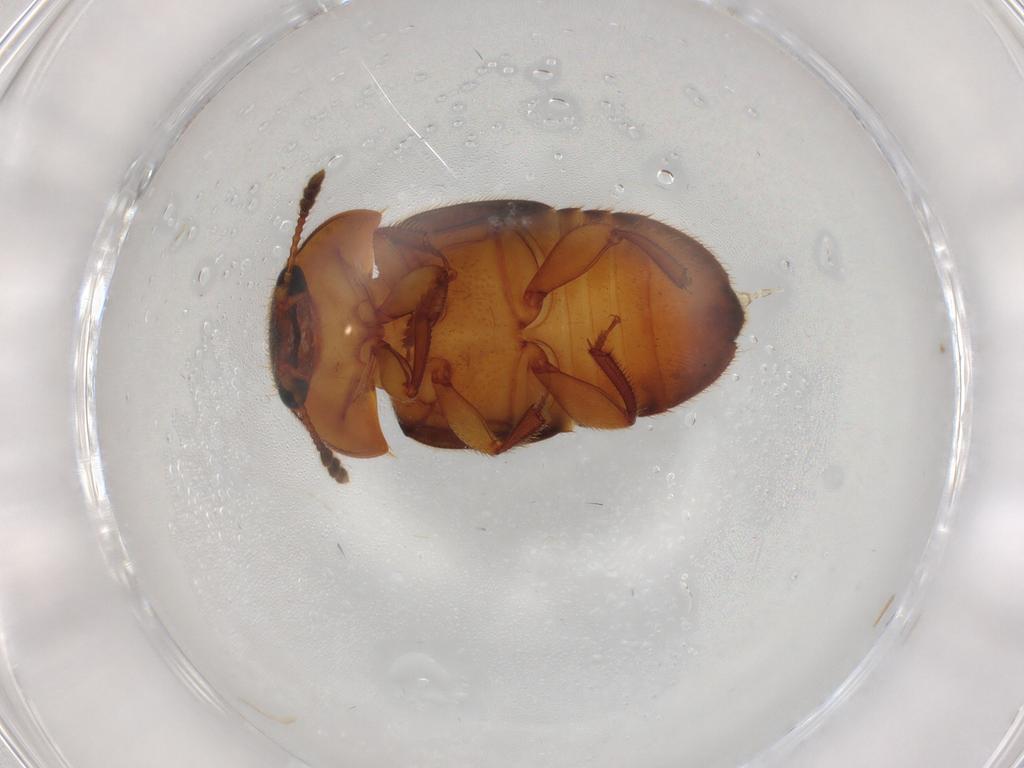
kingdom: Animalia
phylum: Arthropoda
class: Insecta
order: Coleoptera
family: Nitidulidae
